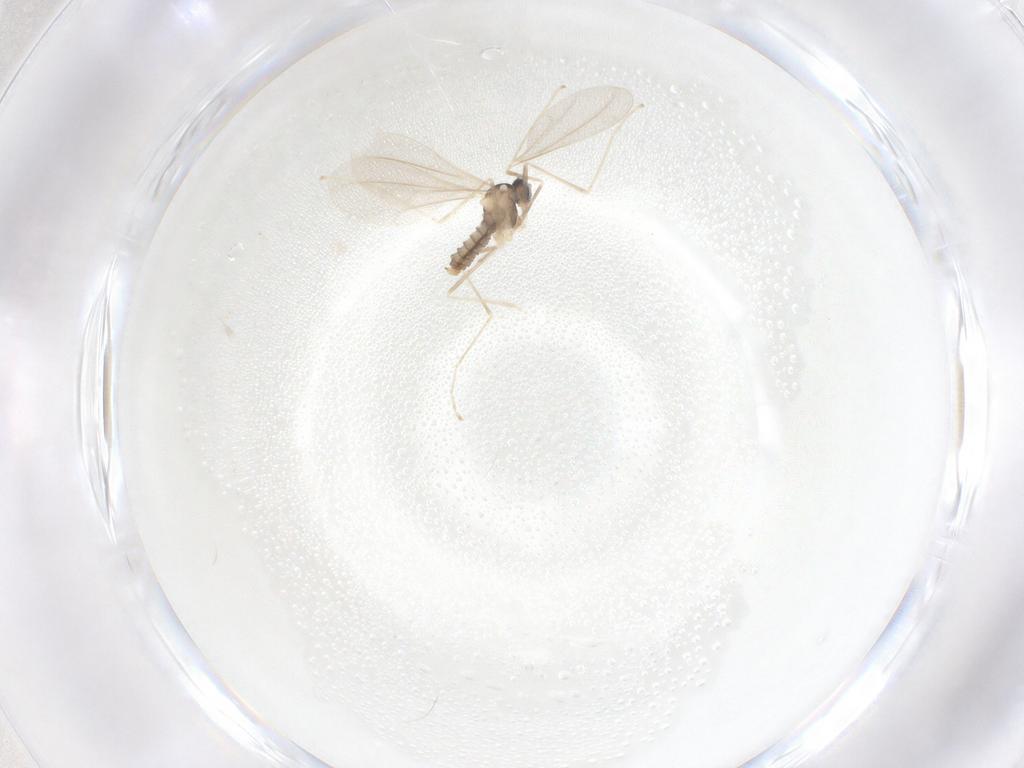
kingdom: Animalia
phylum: Arthropoda
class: Insecta
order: Diptera
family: Cecidomyiidae
